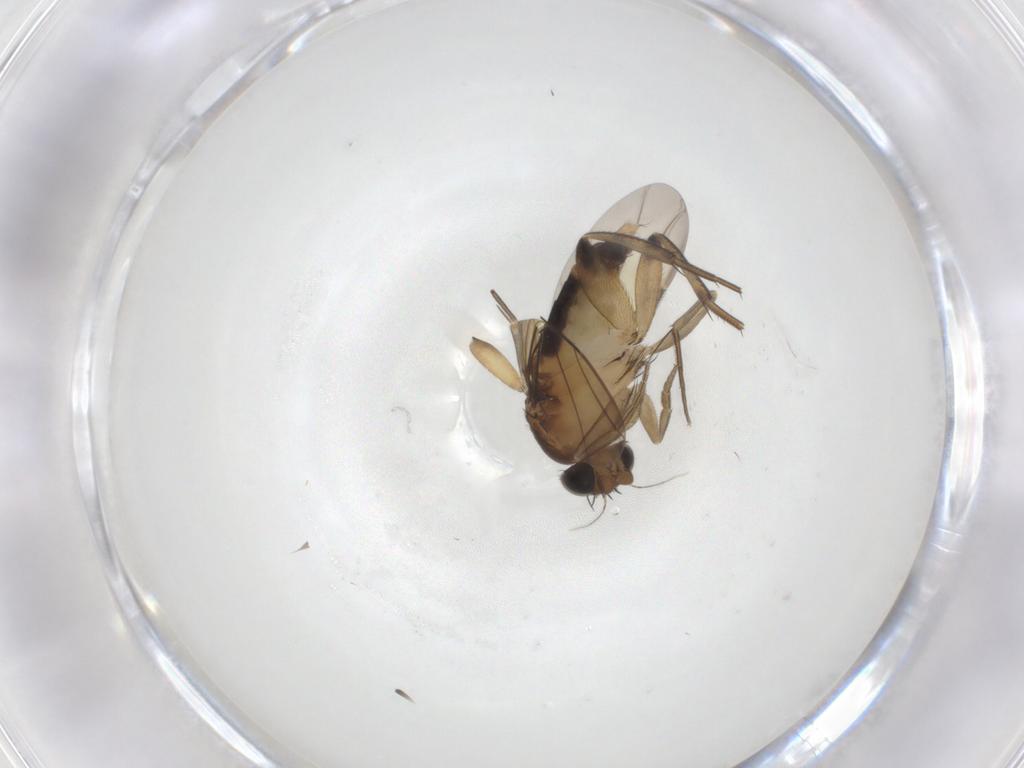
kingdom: Animalia
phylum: Arthropoda
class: Insecta
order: Diptera
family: Phoridae
